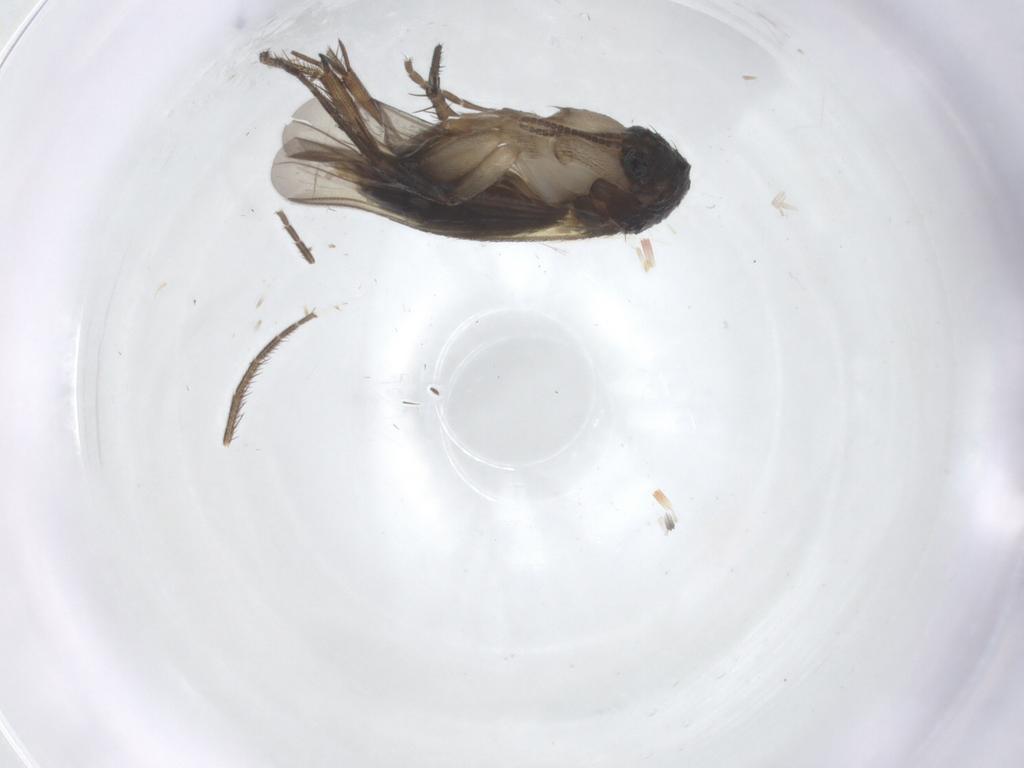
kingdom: Animalia
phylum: Arthropoda
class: Insecta
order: Diptera
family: Mycetophilidae
